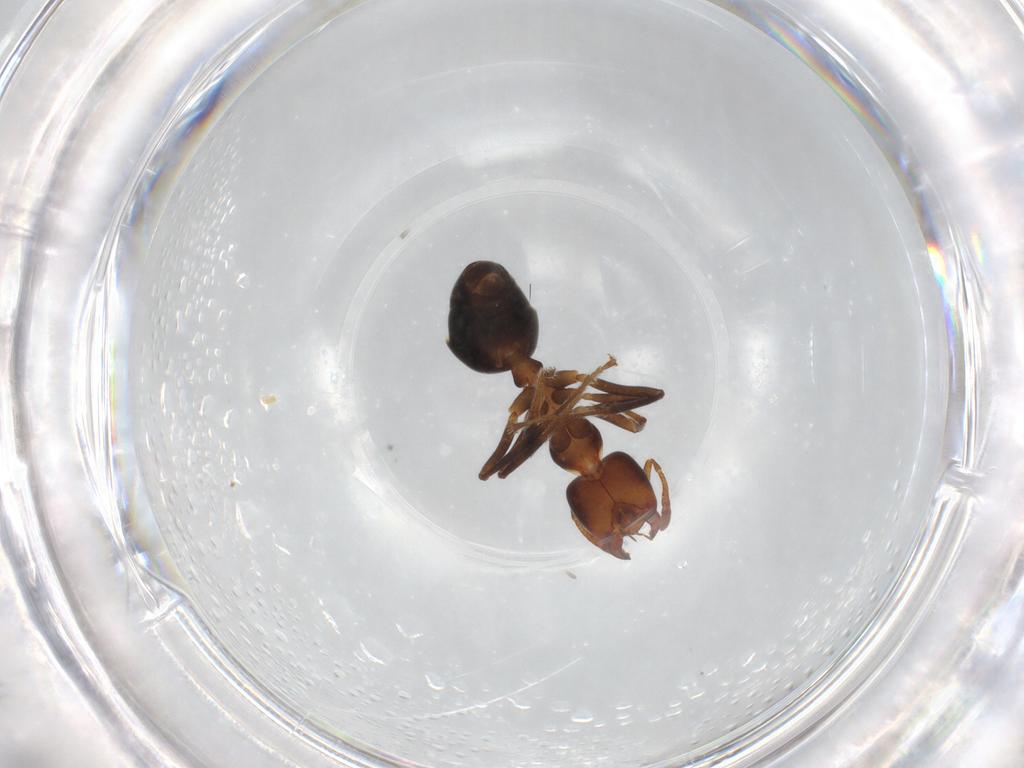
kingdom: Animalia
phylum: Arthropoda
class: Insecta
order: Hymenoptera
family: Formicidae
